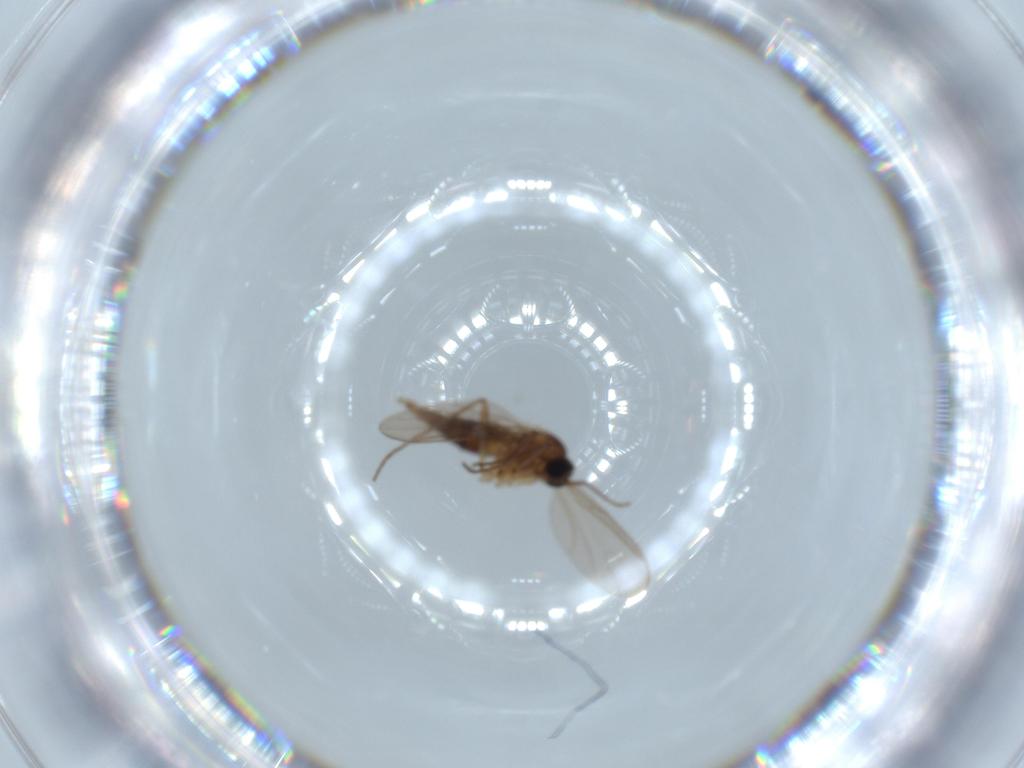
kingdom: Animalia
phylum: Arthropoda
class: Insecta
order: Diptera
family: Sciaridae
